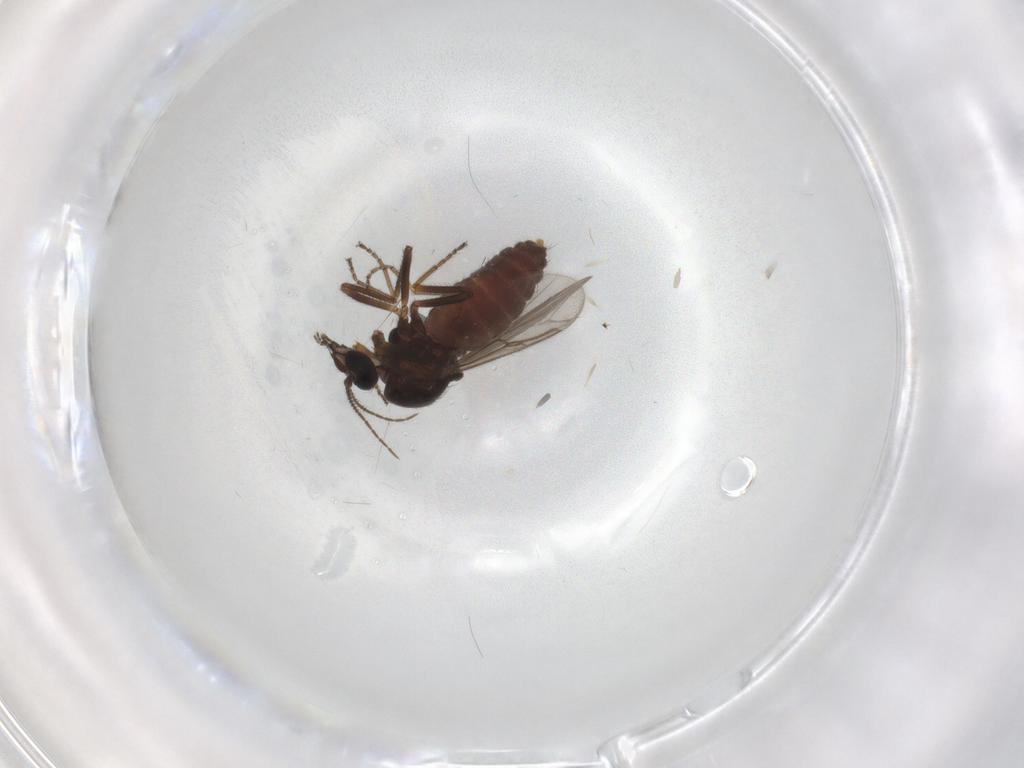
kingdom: Animalia
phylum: Arthropoda
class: Insecta
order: Diptera
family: Ceratopogonidae
